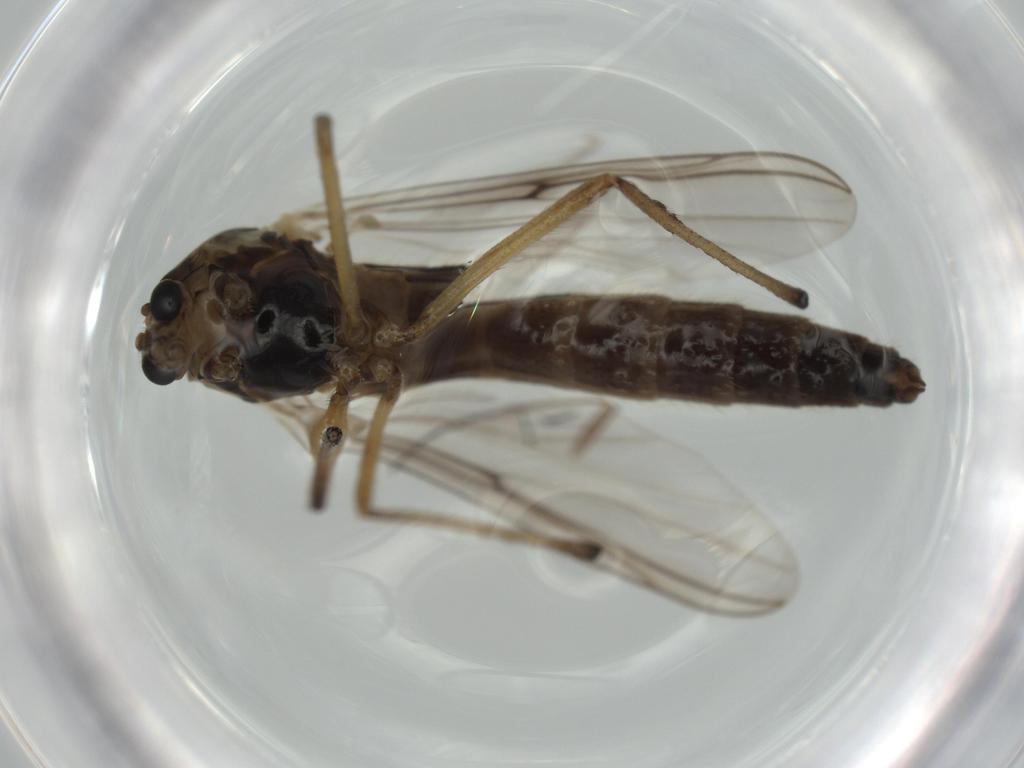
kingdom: Animalia
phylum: Arthropoda
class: Insecta
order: Diptera
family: Chironomidae
